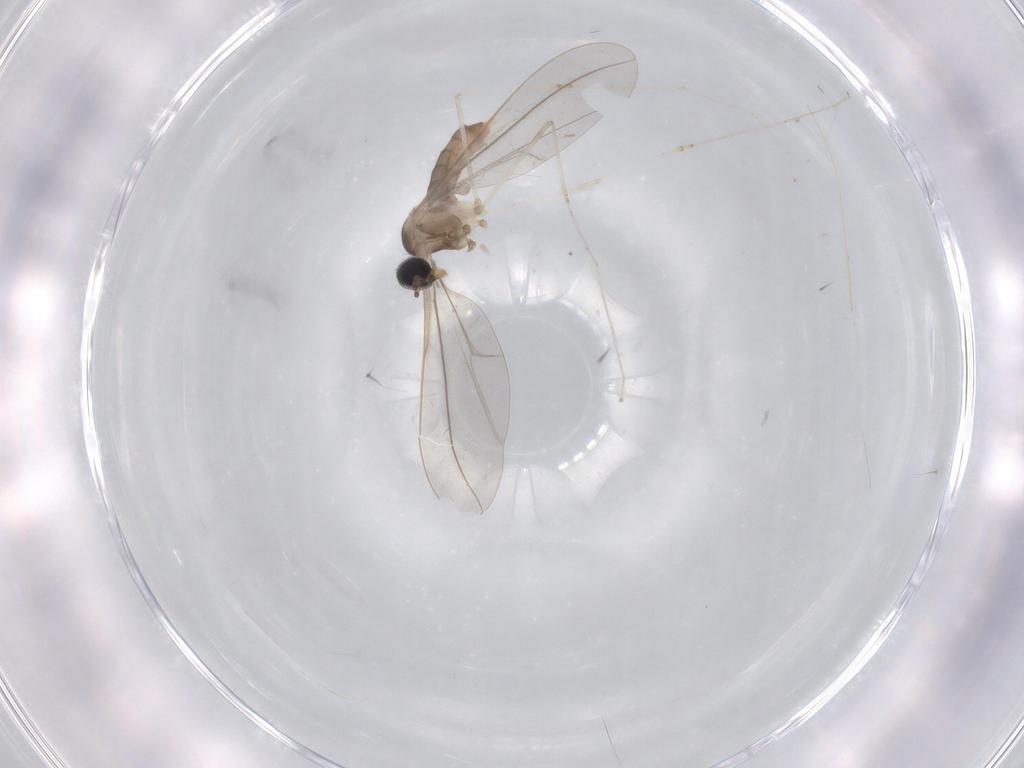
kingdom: Animalia
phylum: Arthropoda
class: Insecta
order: Diptera
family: Cecidomyiidae
